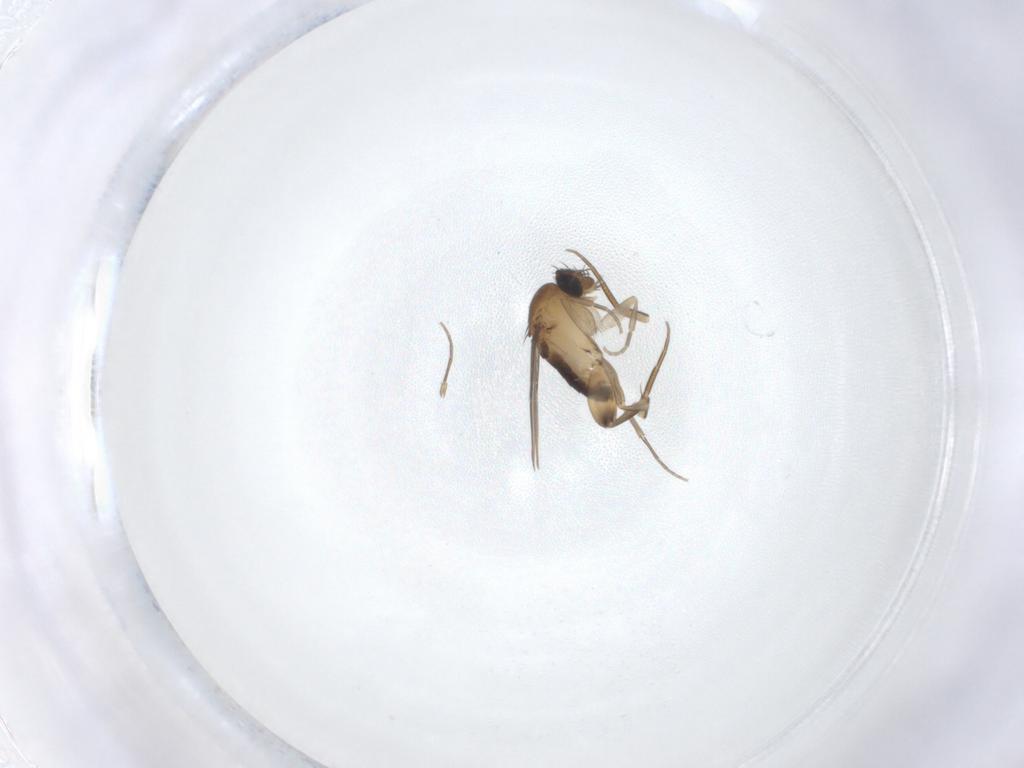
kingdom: Animalia
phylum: Arthropoda
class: Insecta
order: Diptera
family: Phoridae
